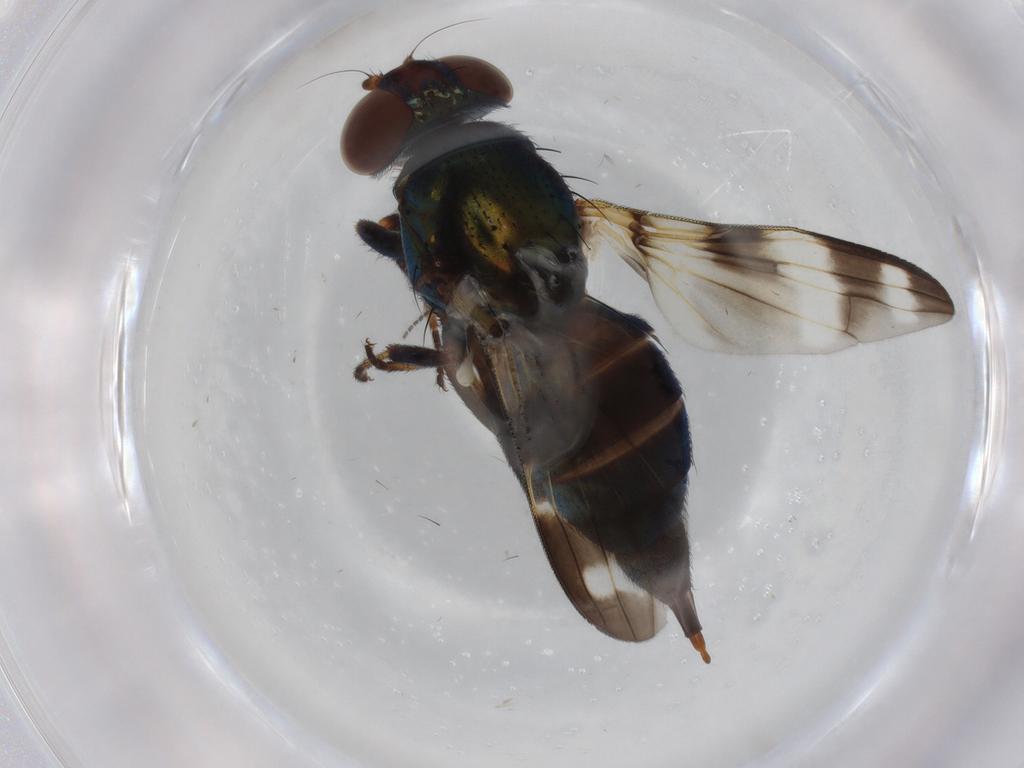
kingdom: Animalia
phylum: Arthropoda
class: Insecta
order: Diptera
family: Ulidiidae
